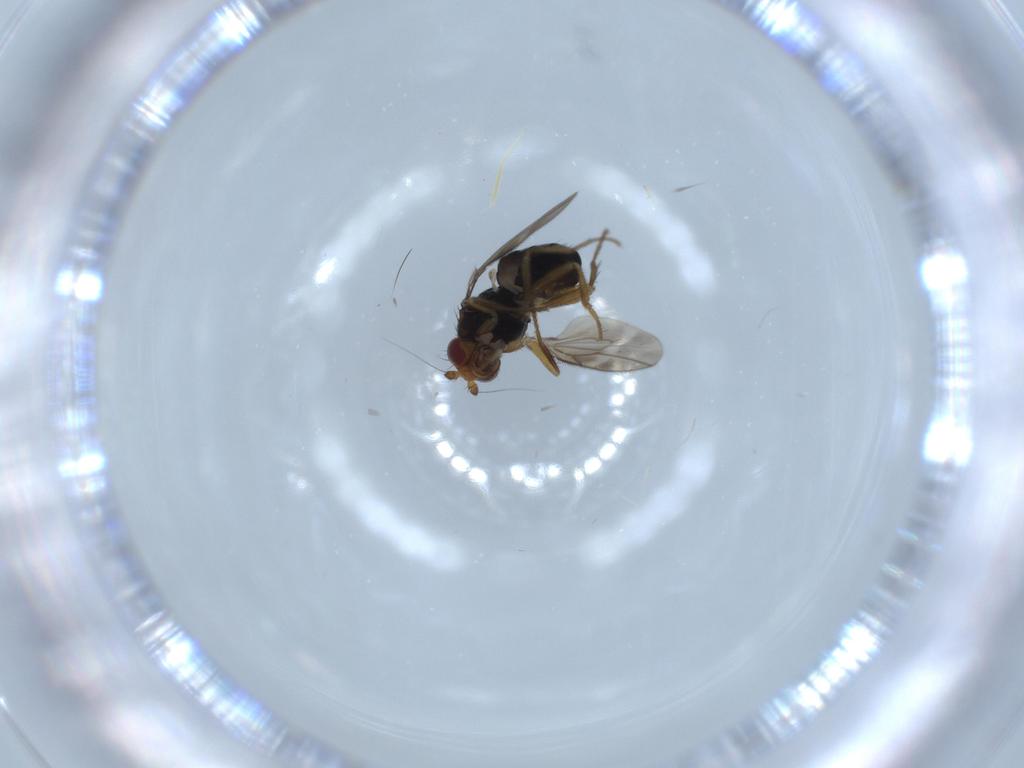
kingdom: Animalia
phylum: Arthropoda
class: Insecta
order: Diptera
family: Sphaeroceridae
